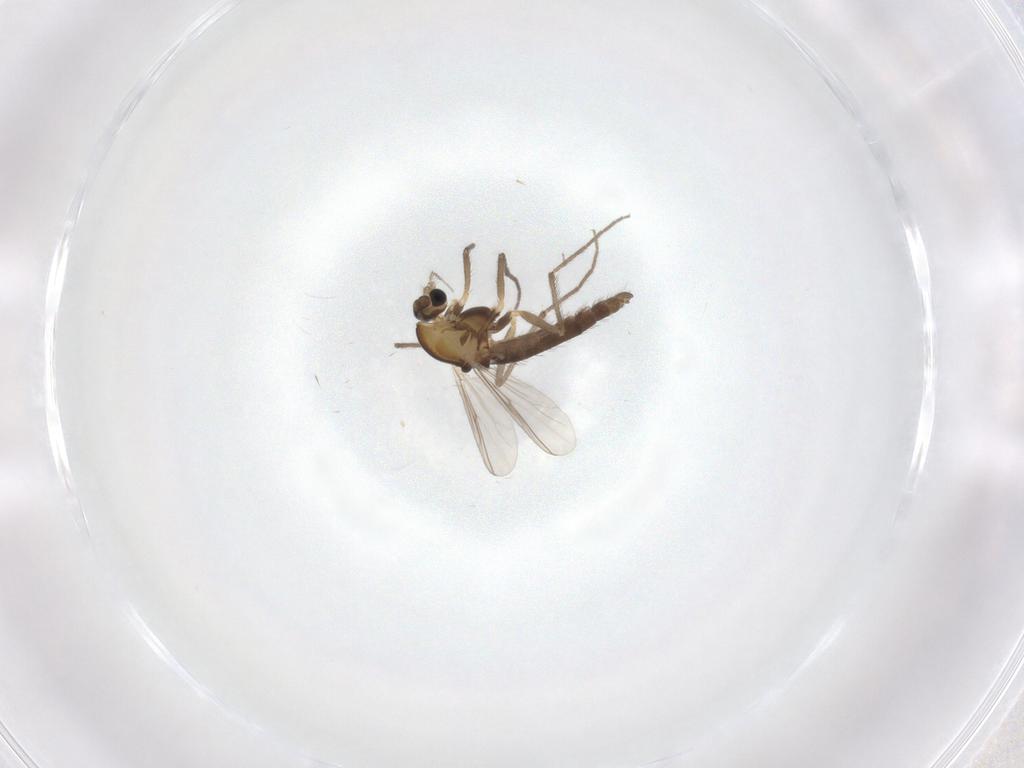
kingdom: Animalia
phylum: Arthropoda
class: Insecta
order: Diptera
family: Chironomidae
